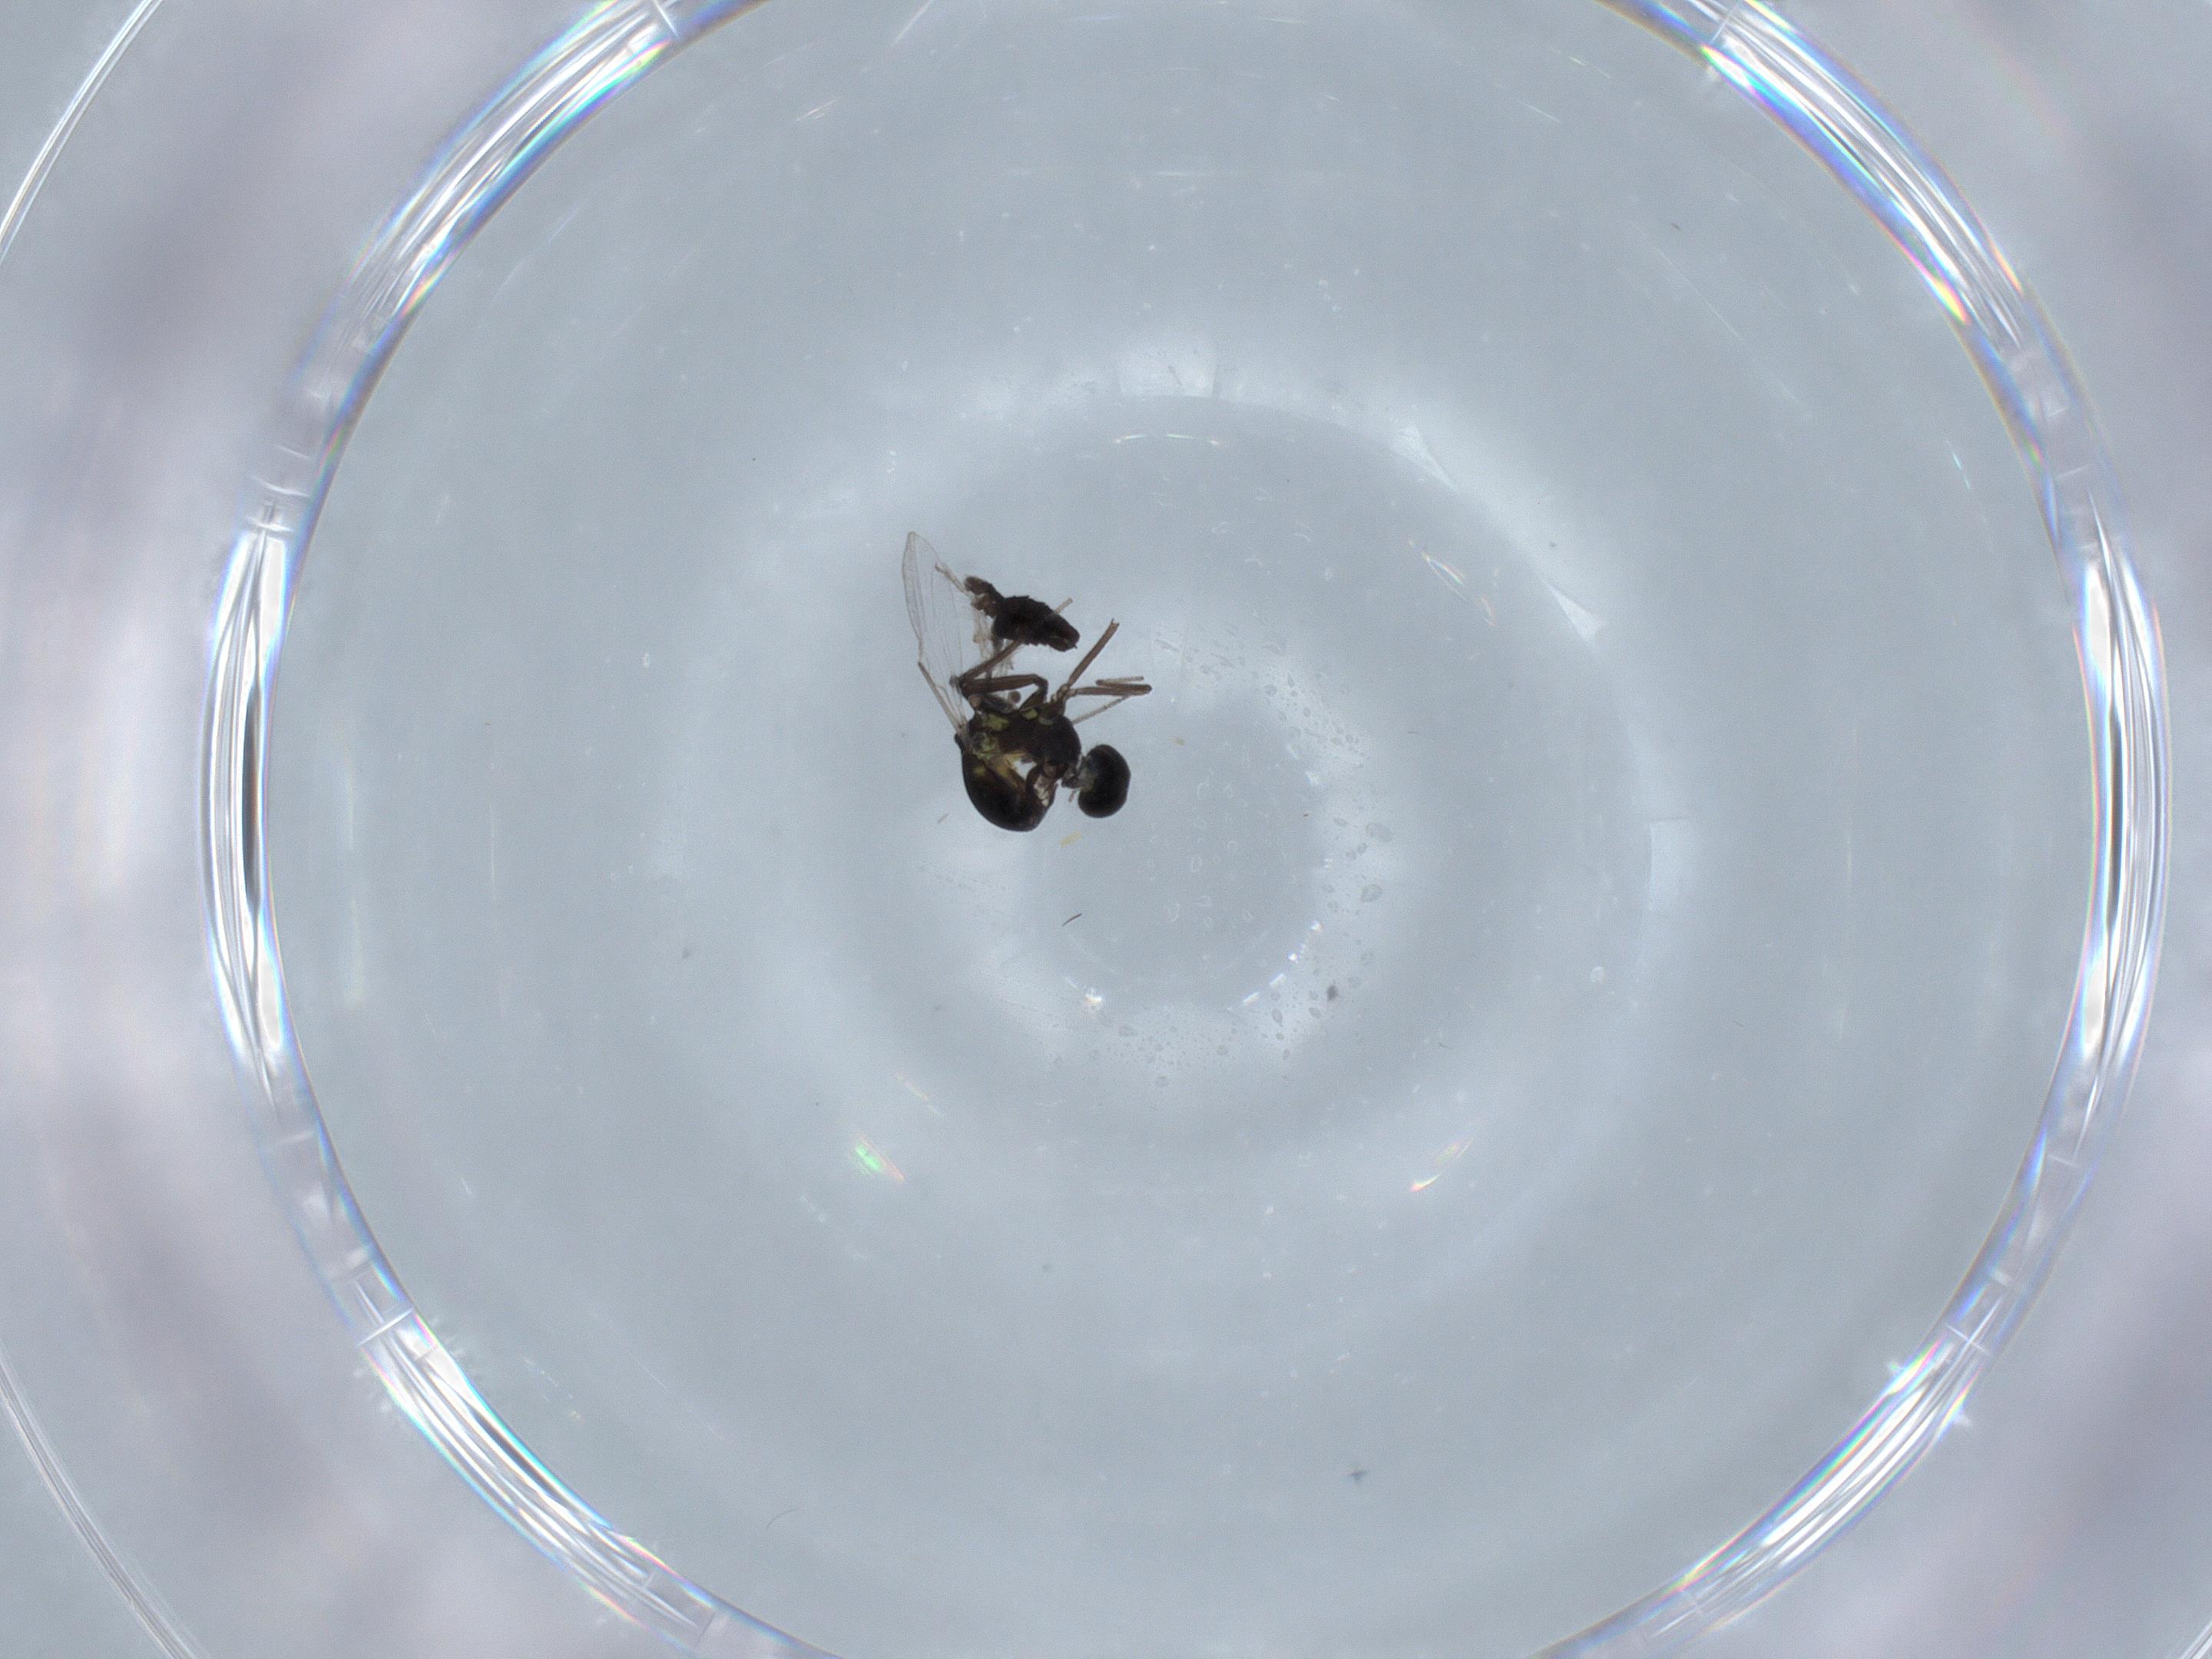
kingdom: Animalia
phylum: Arthropoda
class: Insecta
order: Diptera
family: Ceratopogonidae
